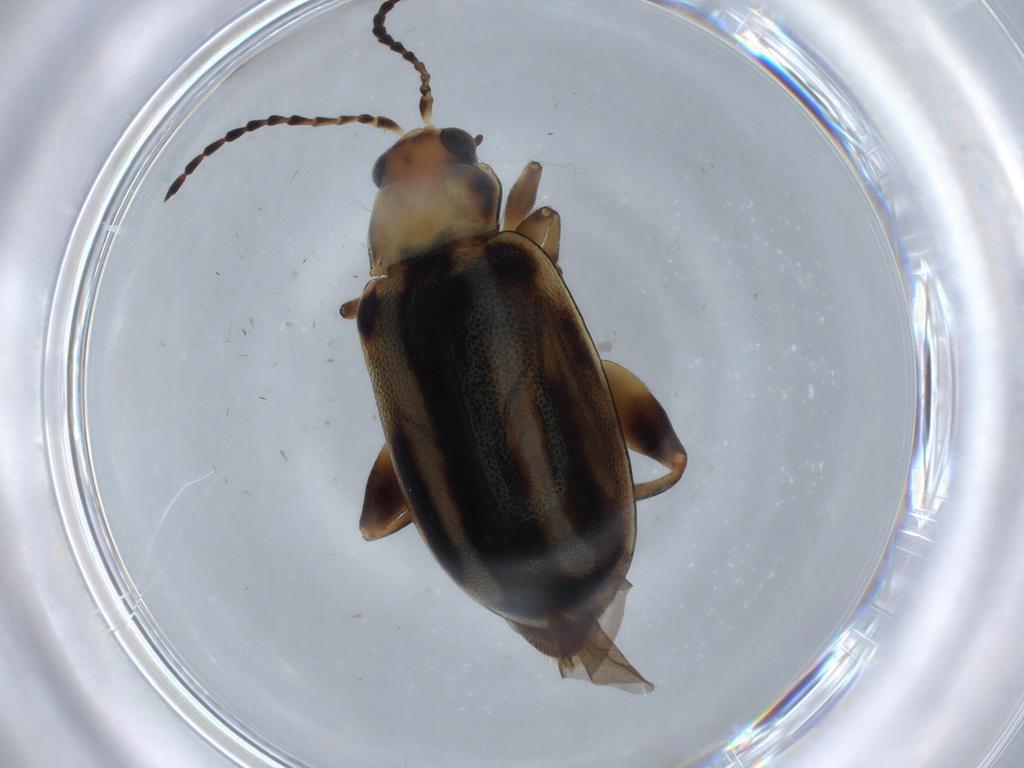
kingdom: Animalia
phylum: Arthropoda
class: Insecta
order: Coleoptera
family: Chrysomelidae
